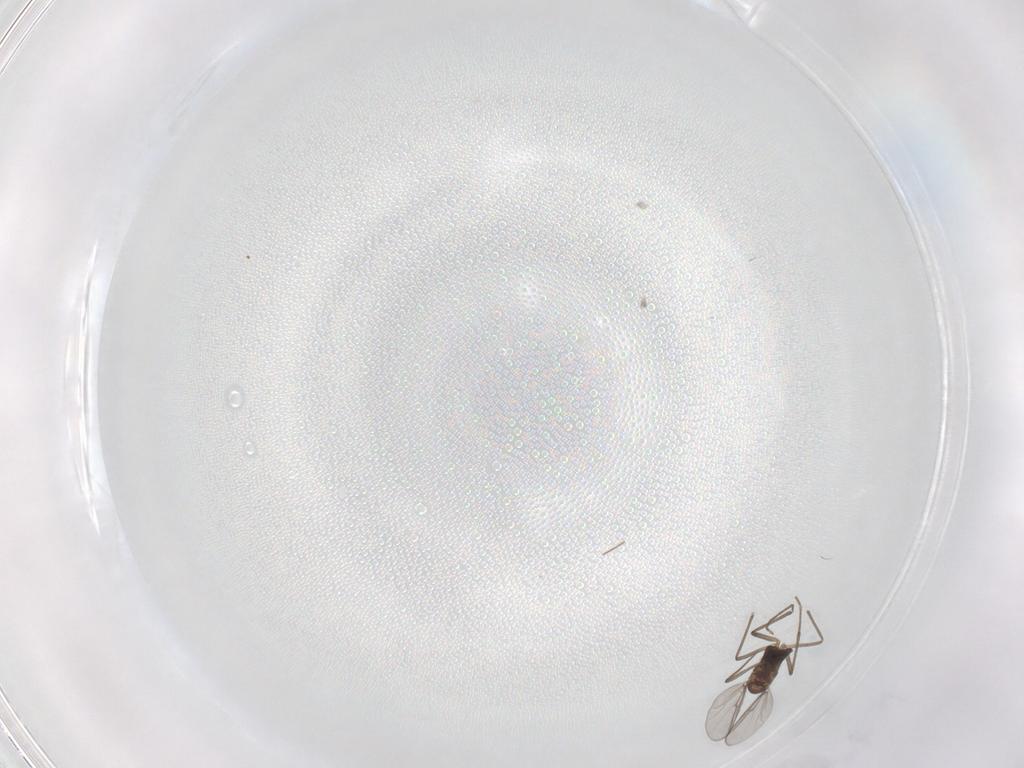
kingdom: Animalia
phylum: Arthropoda
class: Insecta
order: Diptera
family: Chironomidae
